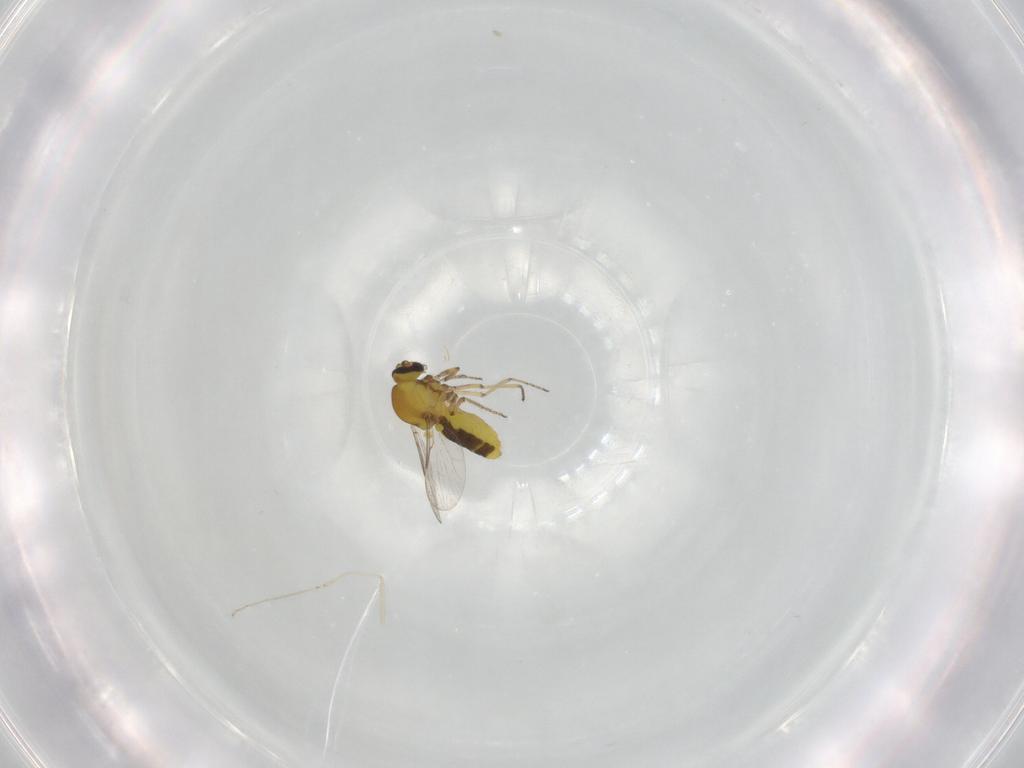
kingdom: Animalia
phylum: Arthropoda
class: Insecta
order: Diptera
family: Ceratopogonidae
